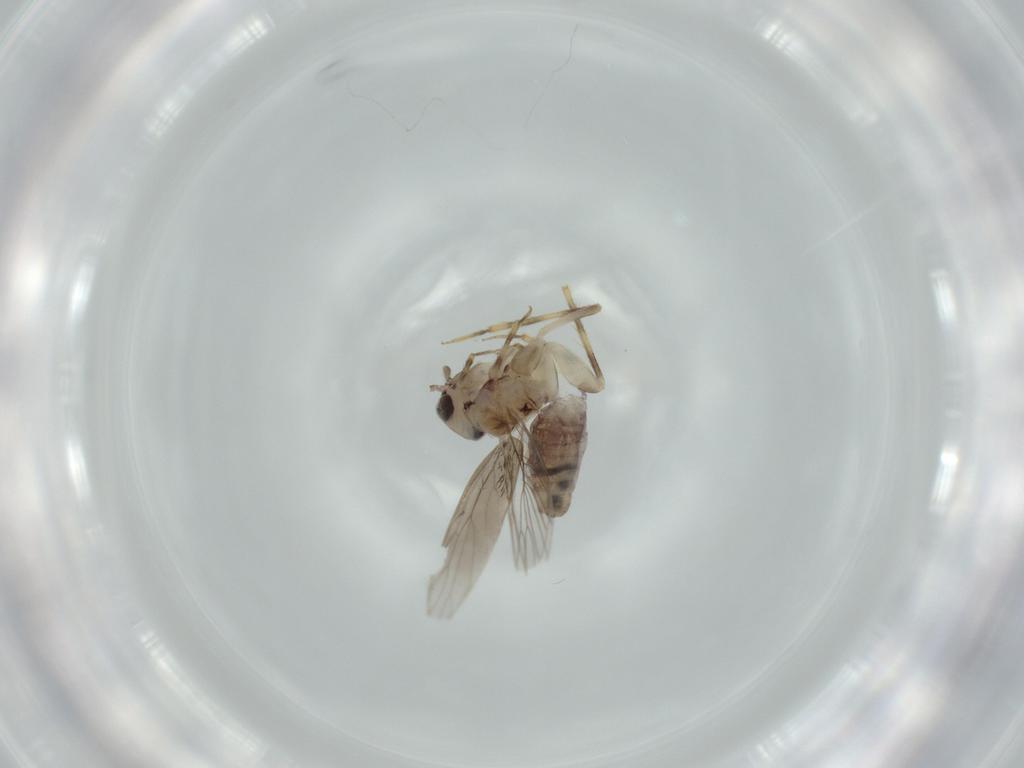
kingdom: Animalia
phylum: Arthropoda
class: Insecta
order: Psocodea
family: Lepidopsocidae
